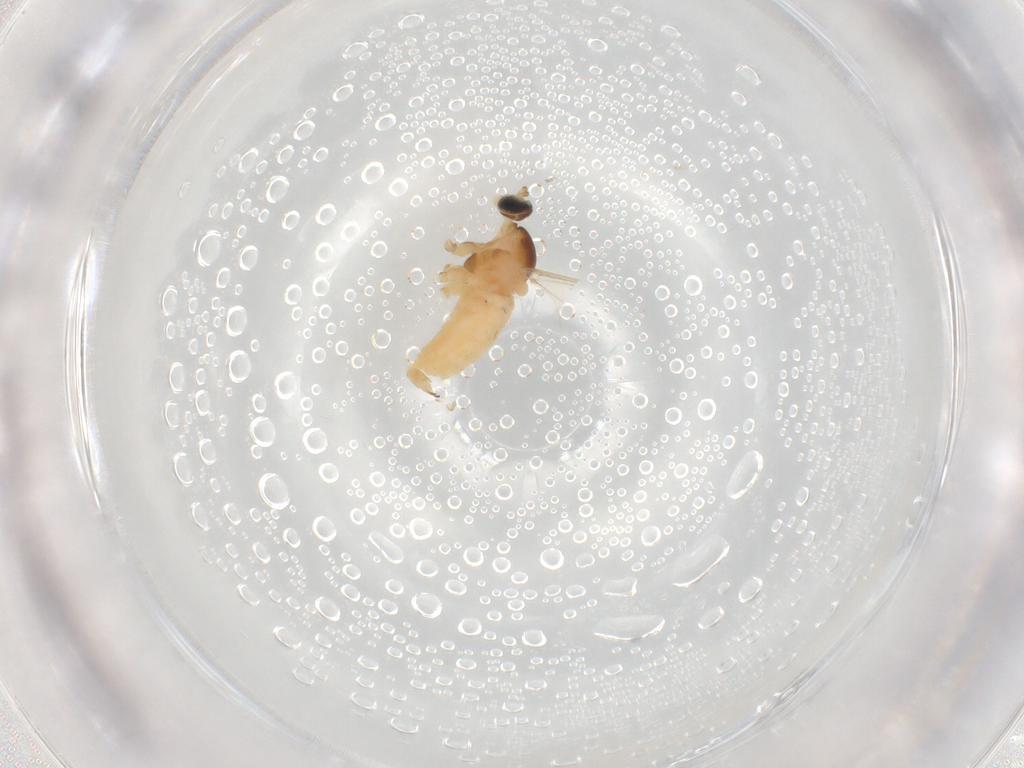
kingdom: Animalia
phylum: Arthropoda
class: Insecta
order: Diptera
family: Cecidomyiidae
